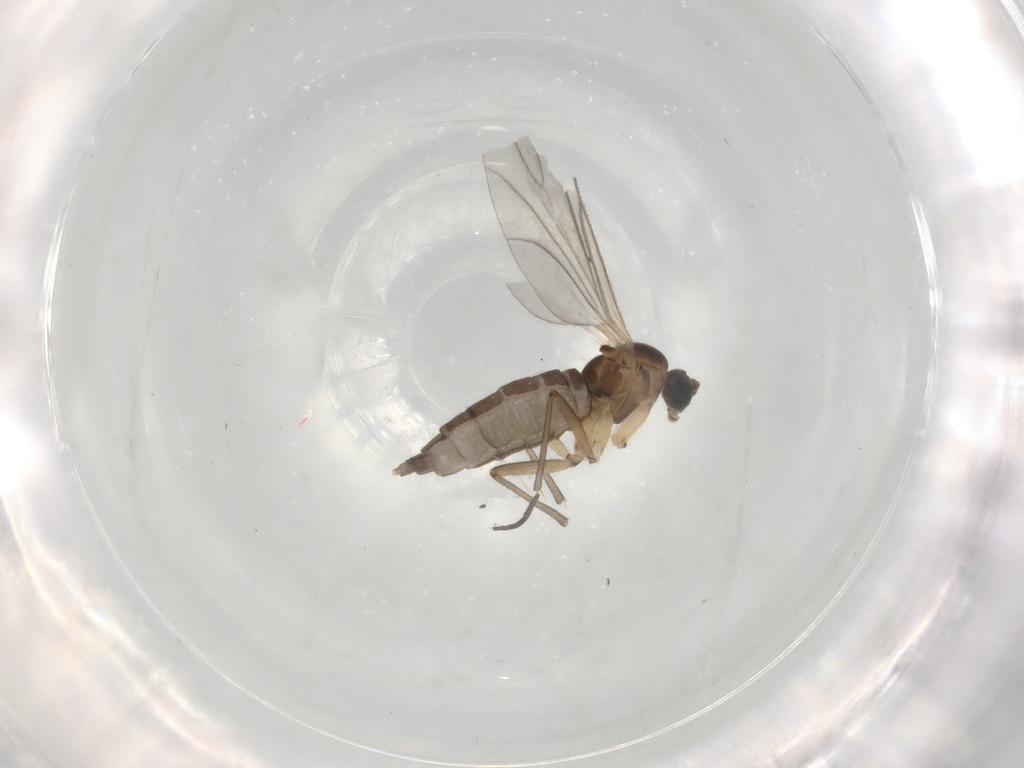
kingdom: Animalia
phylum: Arthropoda
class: Insecta
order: Diptera
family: Sciaridae
